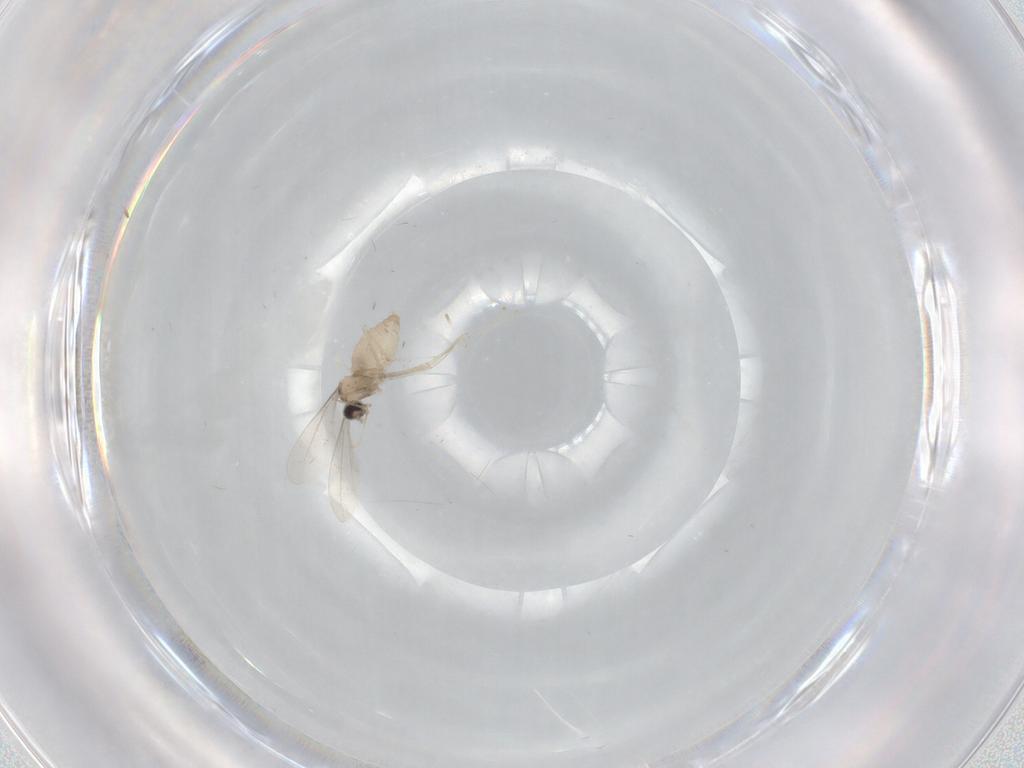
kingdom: Animalia
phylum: Arthropoda
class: Insecta
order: Diptera
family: Cecidomyiidae
